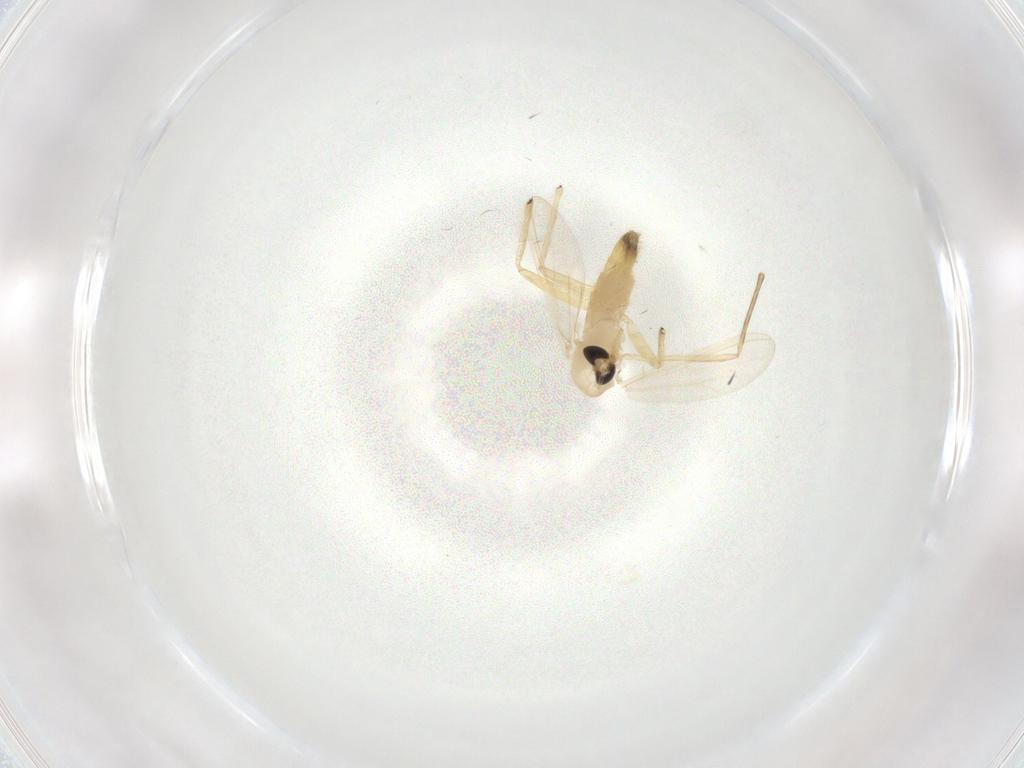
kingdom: Animalia
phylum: Arthropoda
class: Insecta
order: Diptera
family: Chironomidae
